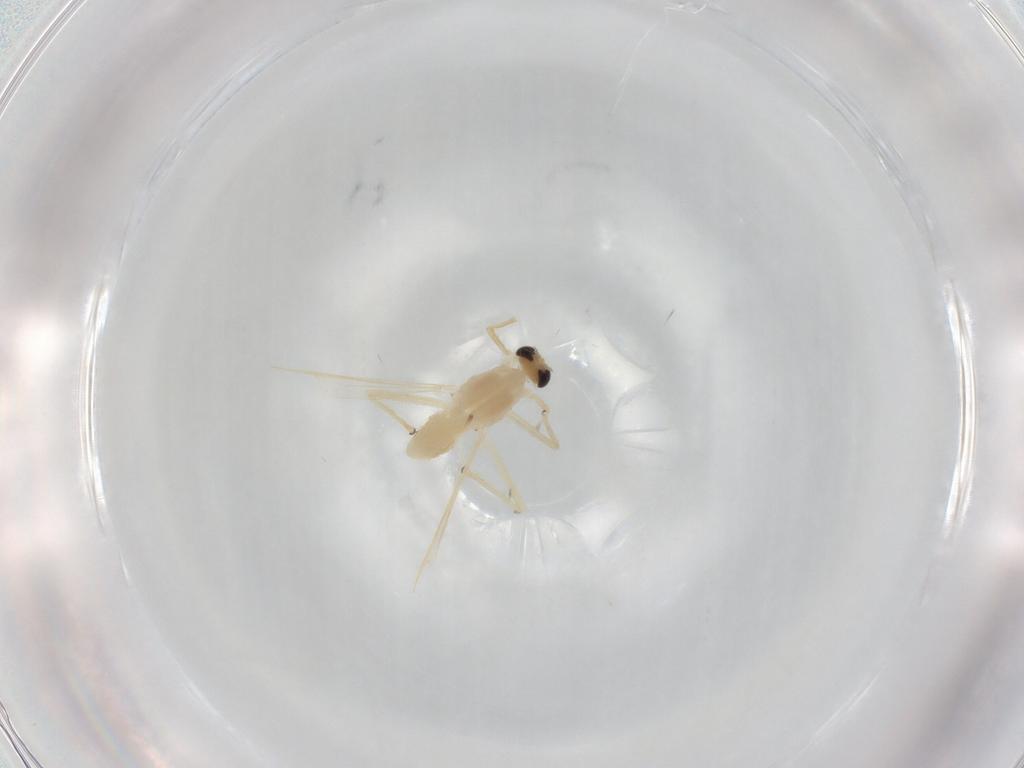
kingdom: Animalia
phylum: Arthropoda
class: Insecta
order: Diptera
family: Chironomidae
